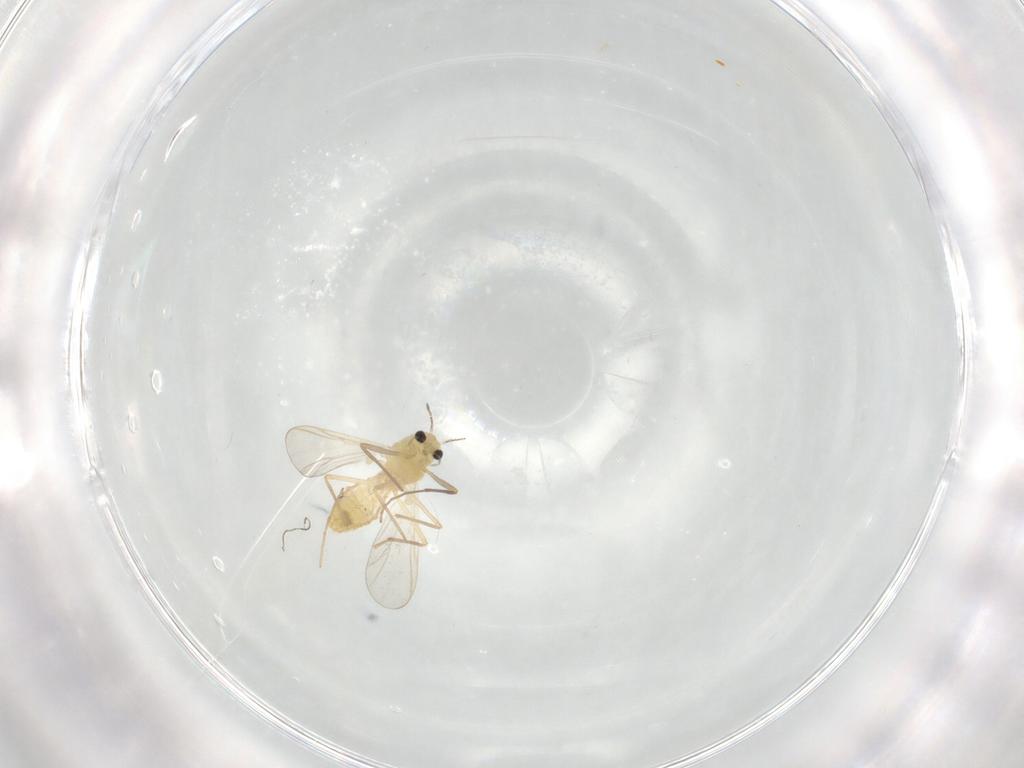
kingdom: Animalia
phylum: Arthropoda
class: Insecta
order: Diptera
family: Chironomidae
